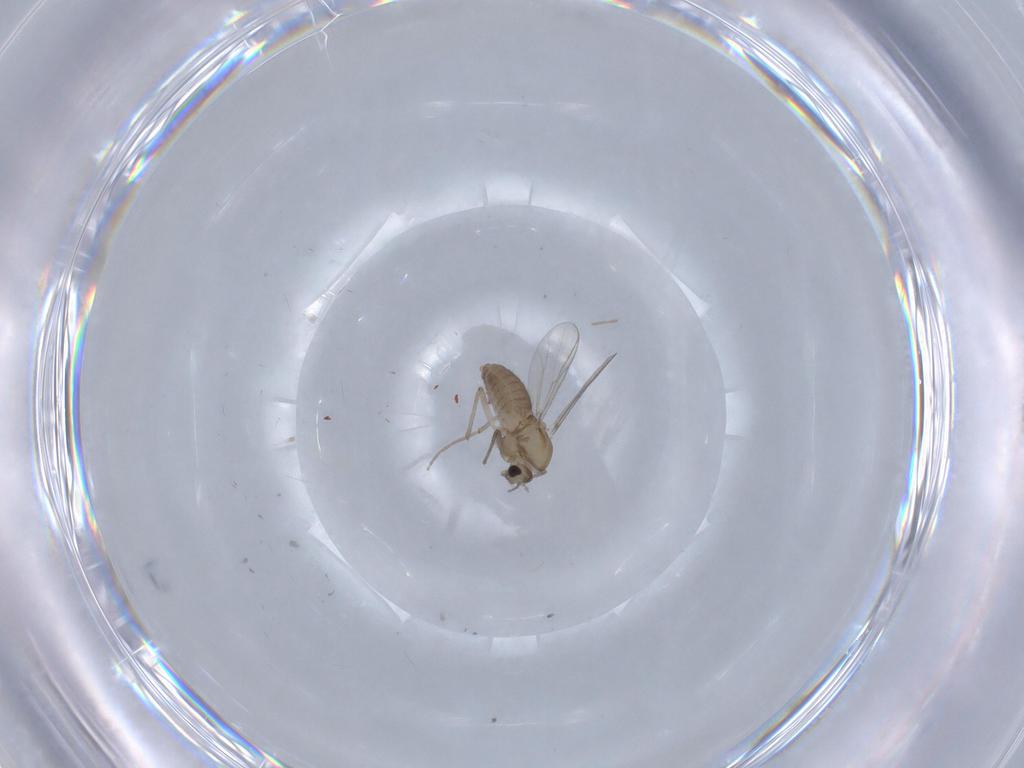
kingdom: Animalia
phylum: Arthropoda
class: Insecta
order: Diptera
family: Chironomidae
